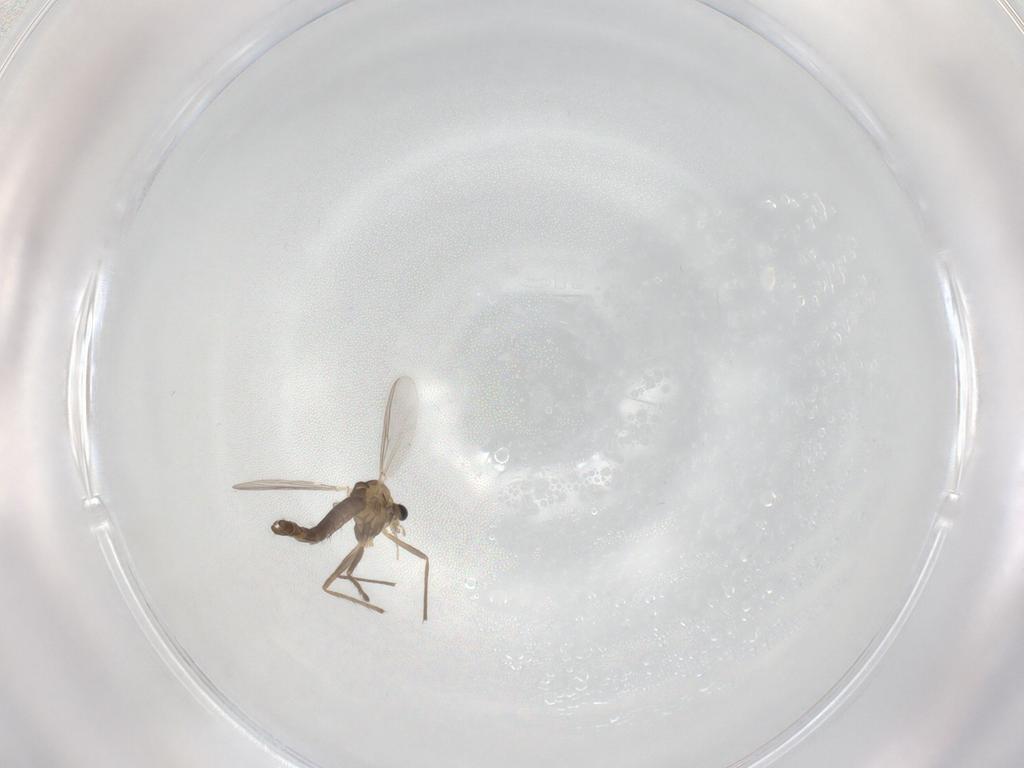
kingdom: Animalia
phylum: Arthropoda
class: Insecta
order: Diptera
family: Chironomidae
